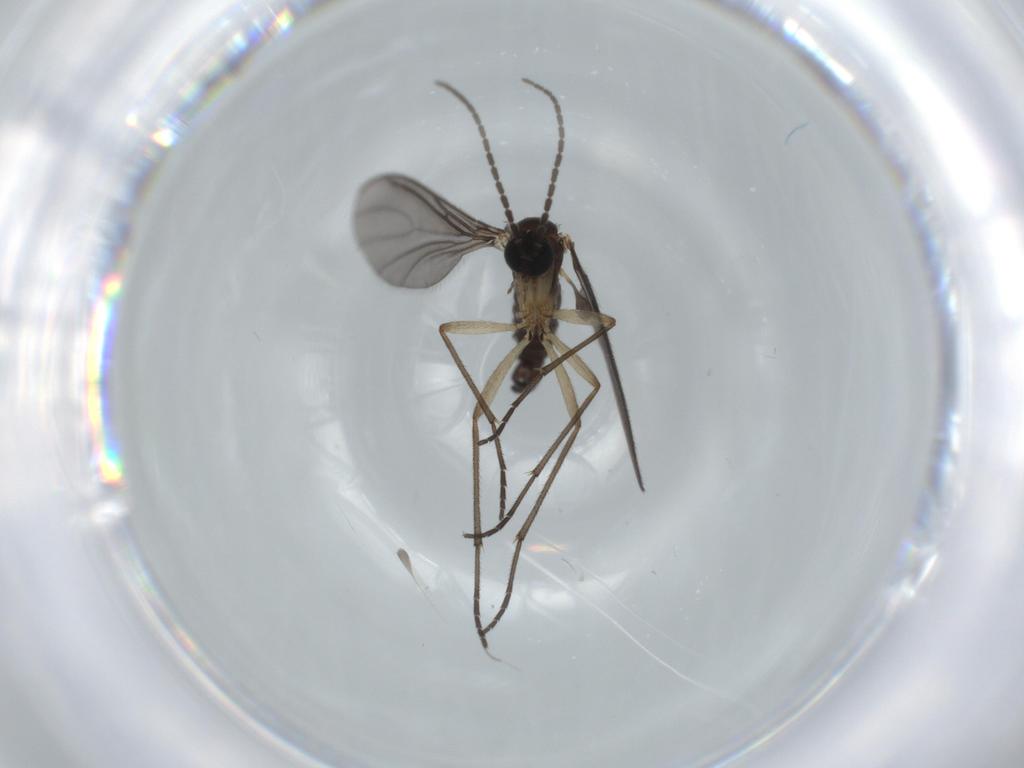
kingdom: Animalia
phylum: Arthropoda
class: Insecta
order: Diptera
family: Sciaridae
